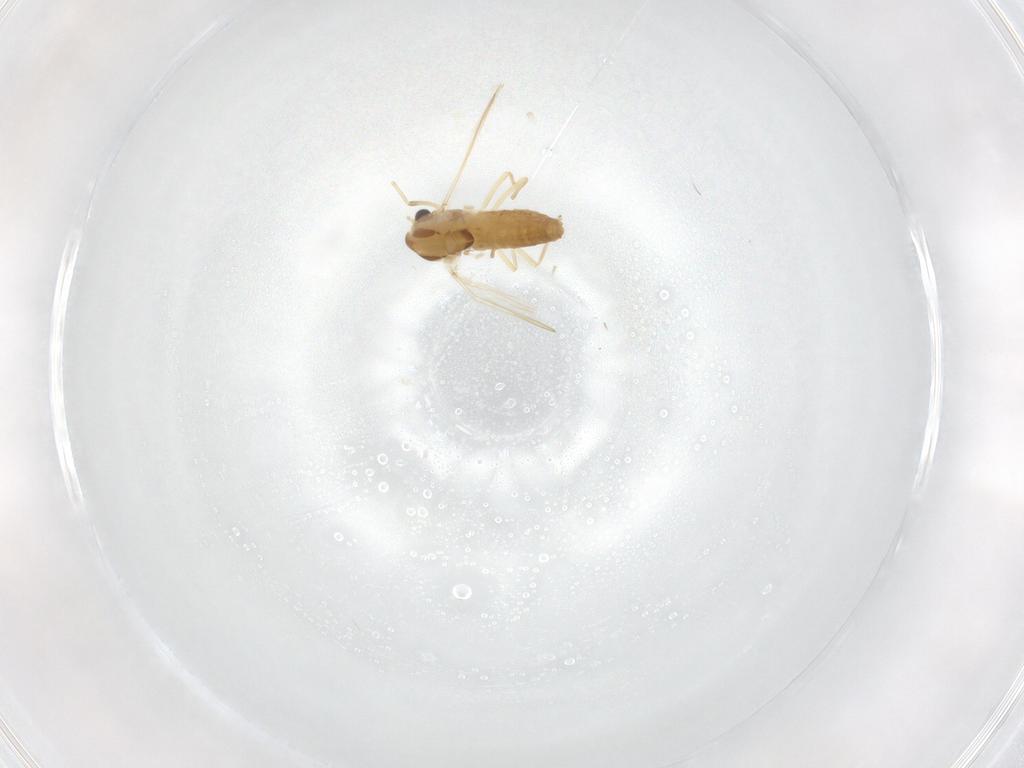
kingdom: Animalia
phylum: Arthropoda
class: Insecta
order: Diptera
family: Chironomidae
